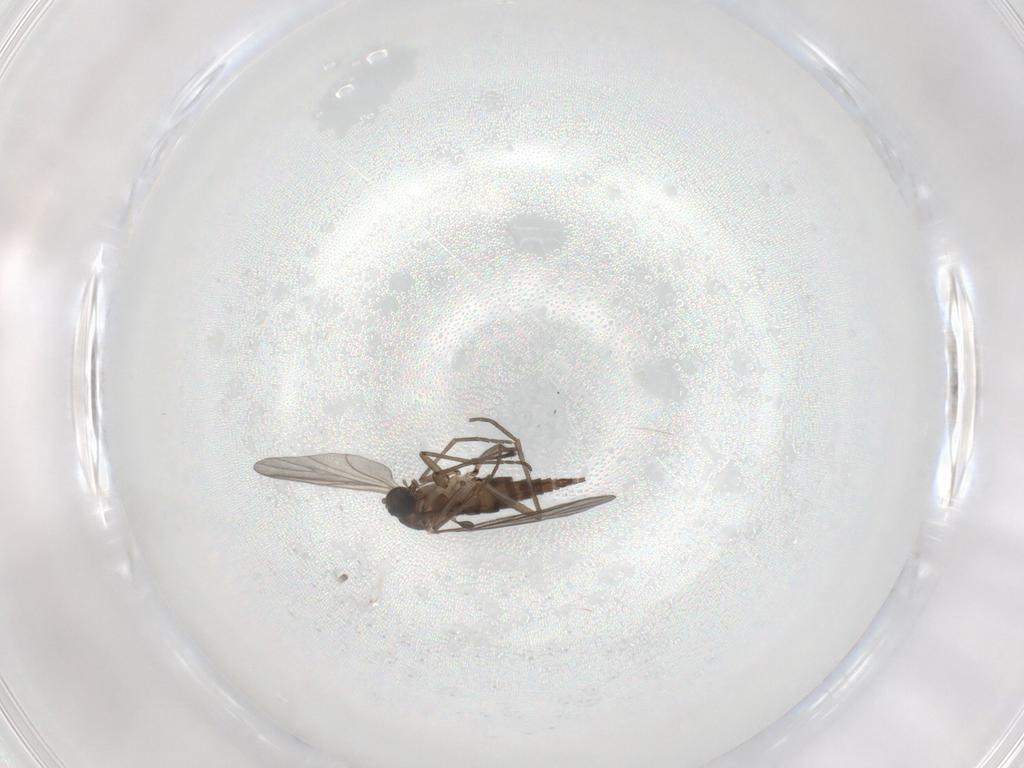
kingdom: Animalia
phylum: Arthropoda
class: Insecta
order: Diptera
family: Sciaridae
